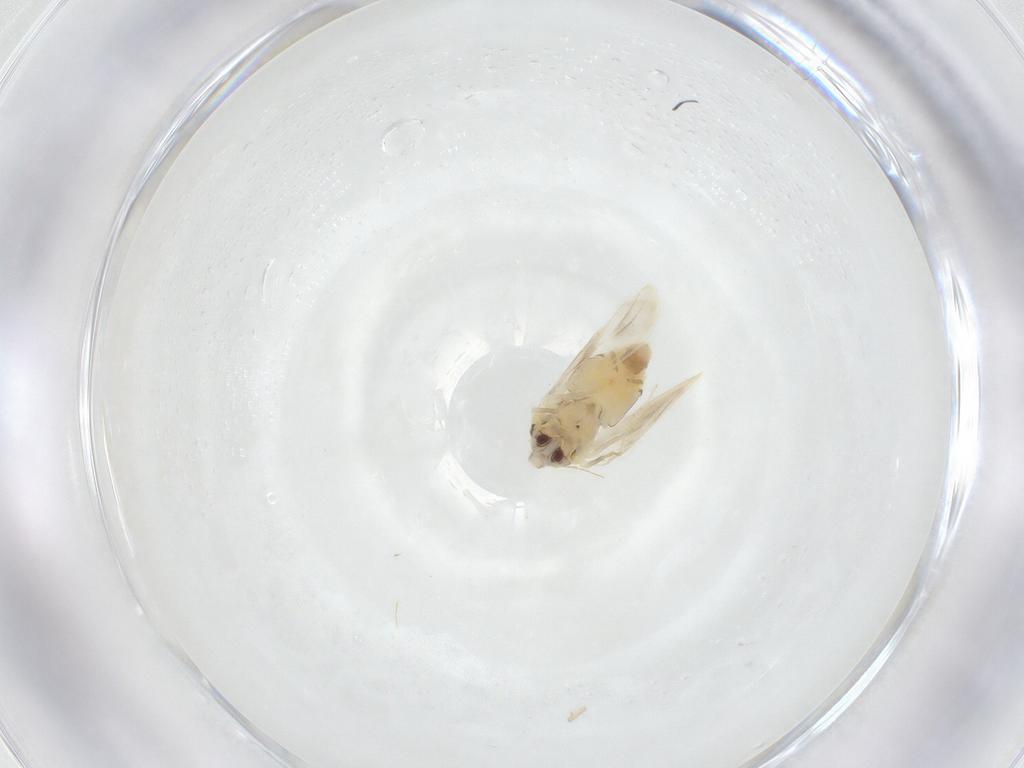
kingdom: Animalia
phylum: Arthropoda
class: Insecta
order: Hemiptera
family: Aleyrodidae
